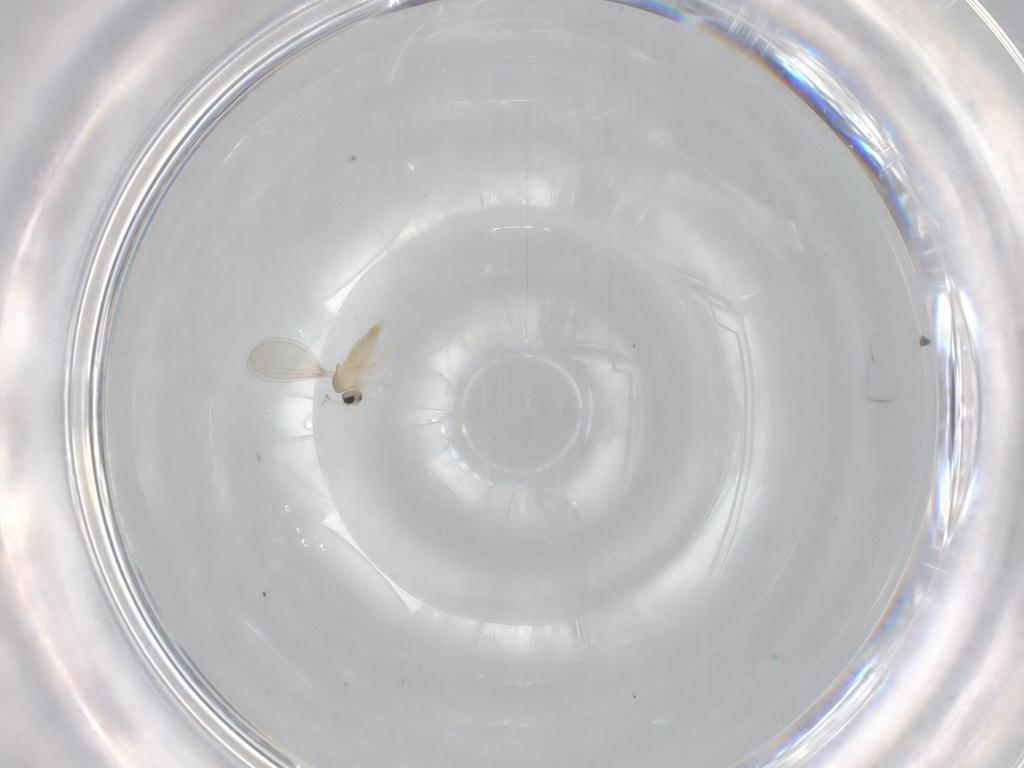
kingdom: Animalia
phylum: Arthropoda
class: Insecta
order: Diptera
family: Cecidomyiidae
